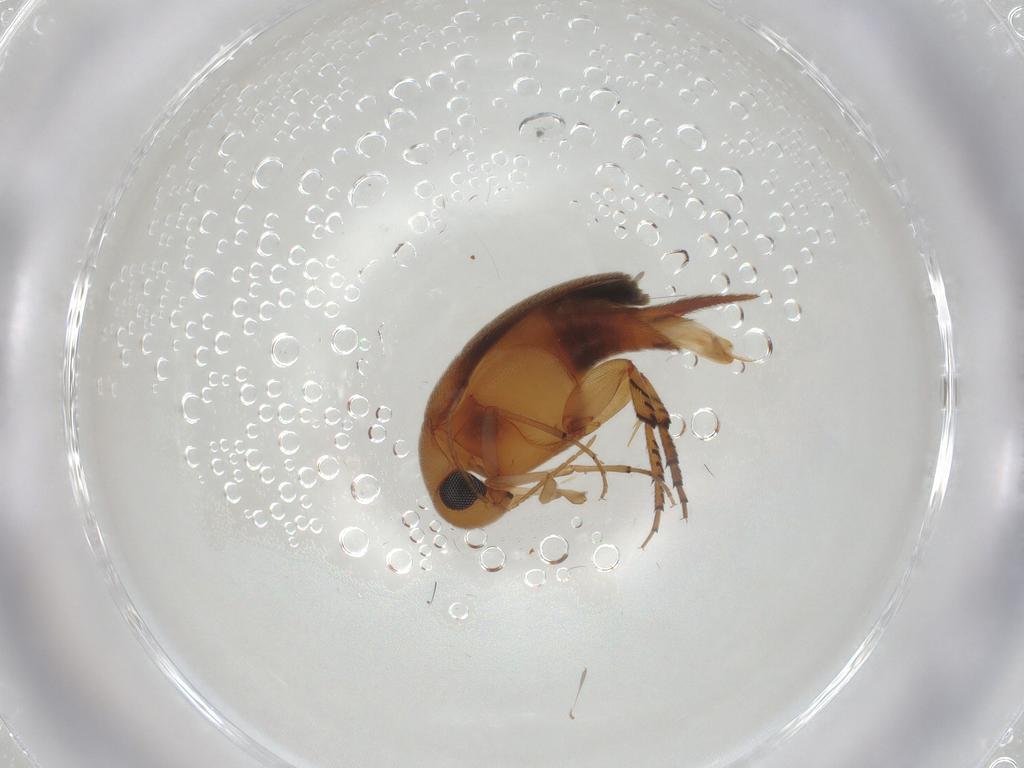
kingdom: Animalia
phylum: Arthropoda
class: Insecta
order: Coleoptera
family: Mordellidae
